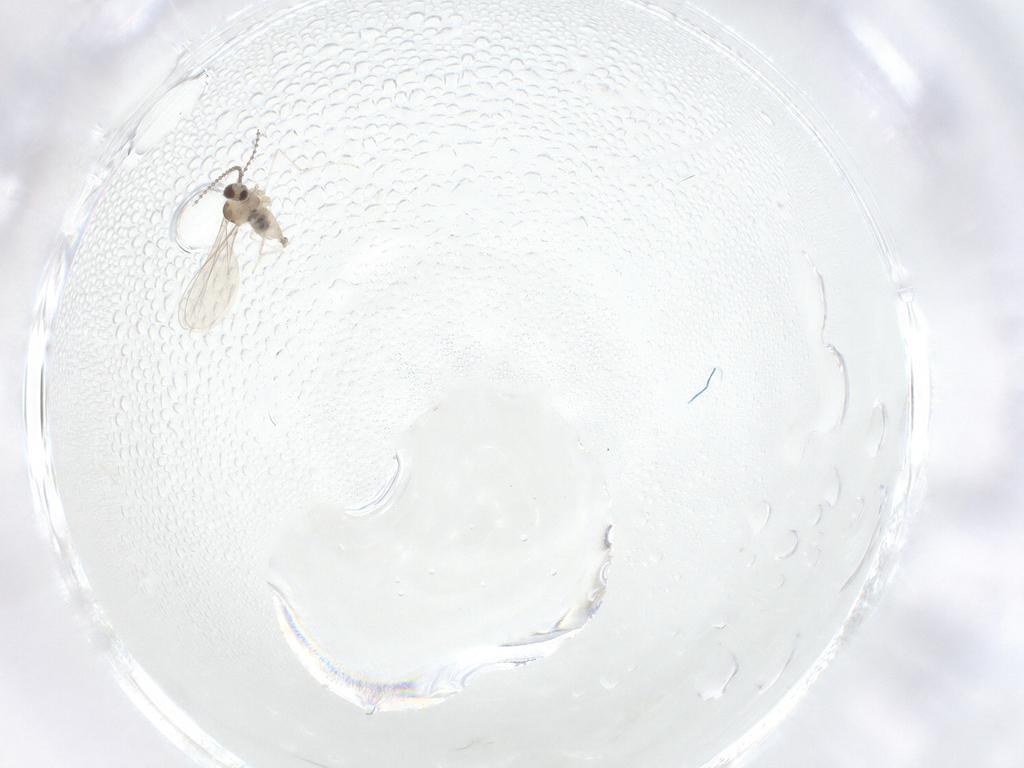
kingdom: Animalia
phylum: Arthropoda
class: Insecta
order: Diptera
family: Cecidomyiidae
